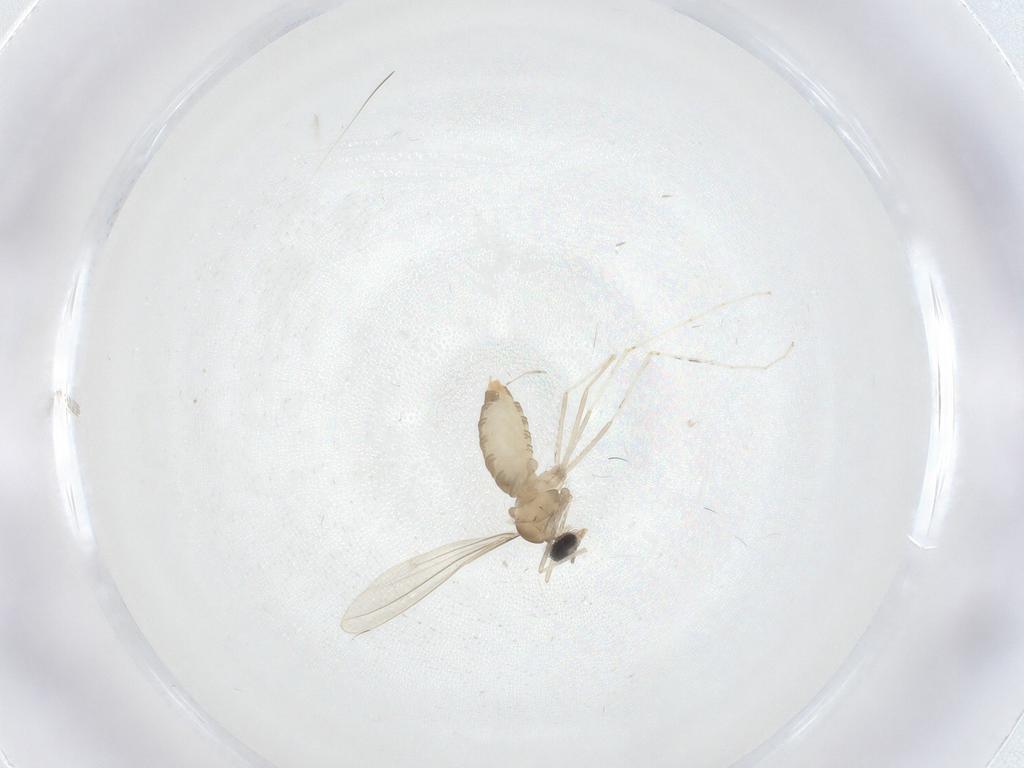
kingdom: Animalia
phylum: Arthropoda
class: Insecta
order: Diptera
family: Cecidomyiidae
